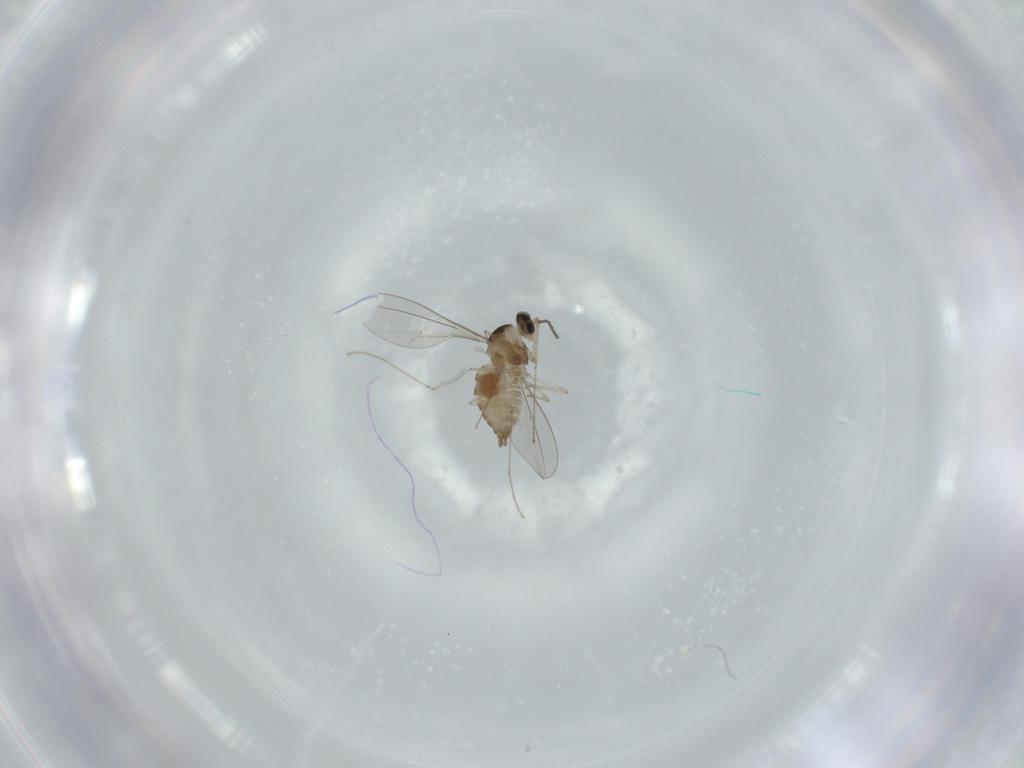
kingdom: Animalia
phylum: Arthropoda
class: Insecta
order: Diptera
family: Cecidomyiidae
